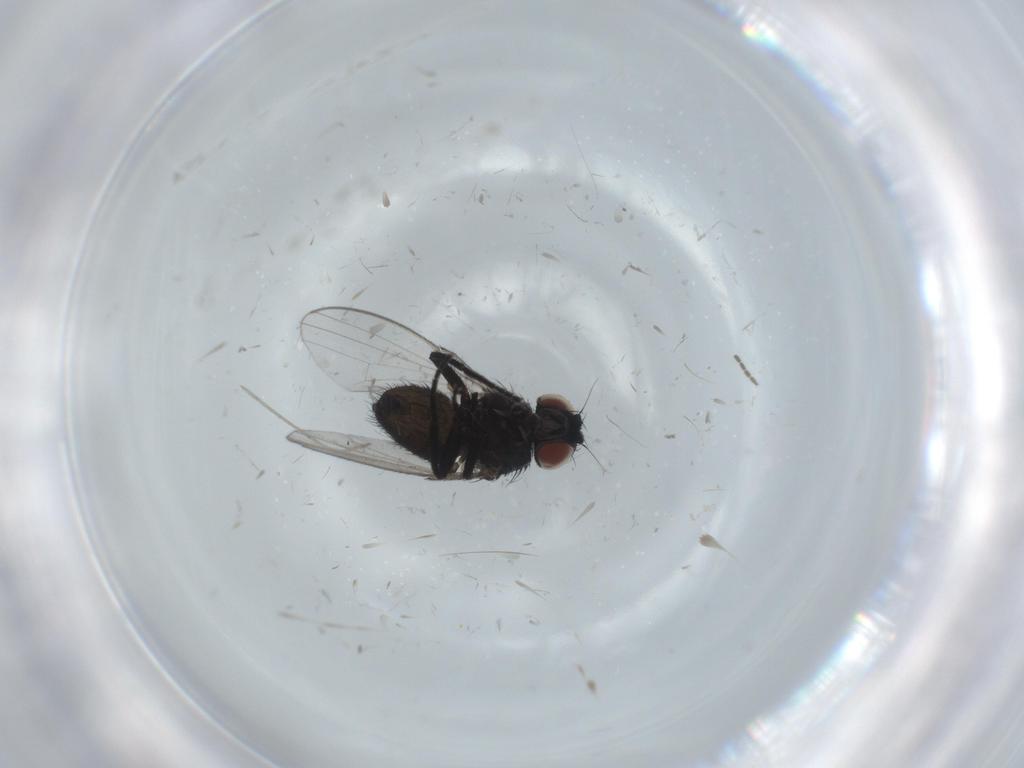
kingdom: Animalia
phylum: Arthropoda
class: Insecta
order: Diptera
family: Milichiidae
